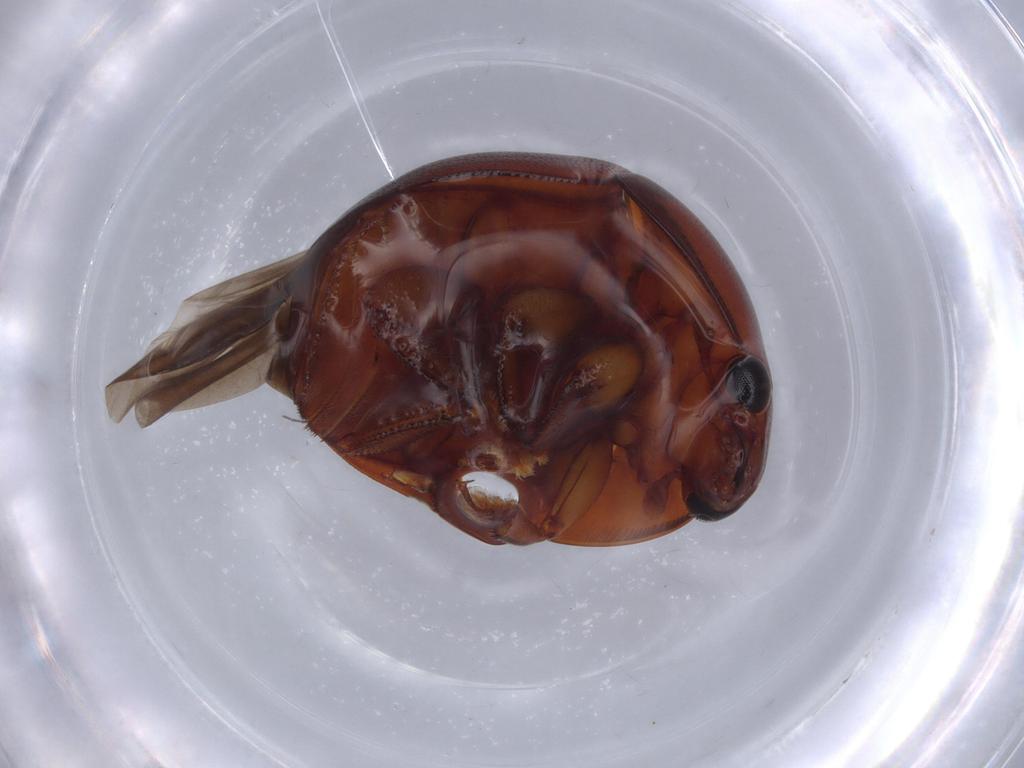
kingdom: Animalia
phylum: Arthropoda
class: Insecta
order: Coleoptera
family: Nitidulidae
